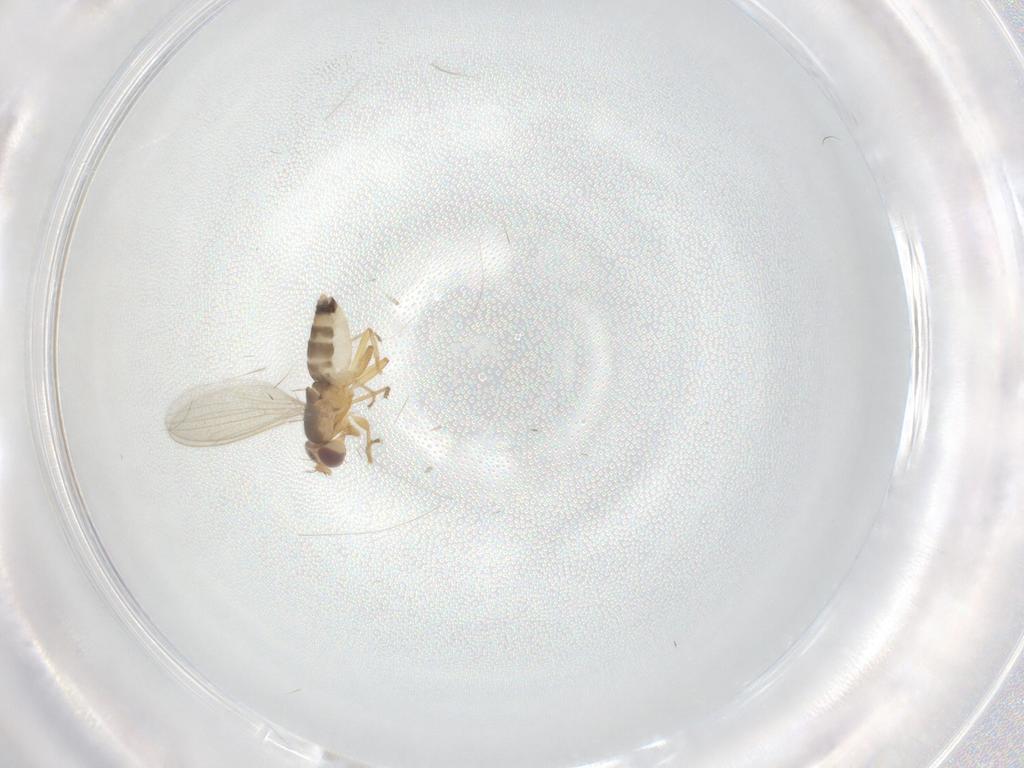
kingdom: Animalia
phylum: Arthropoda
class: Insecta
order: Diptera
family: Periscelididae
